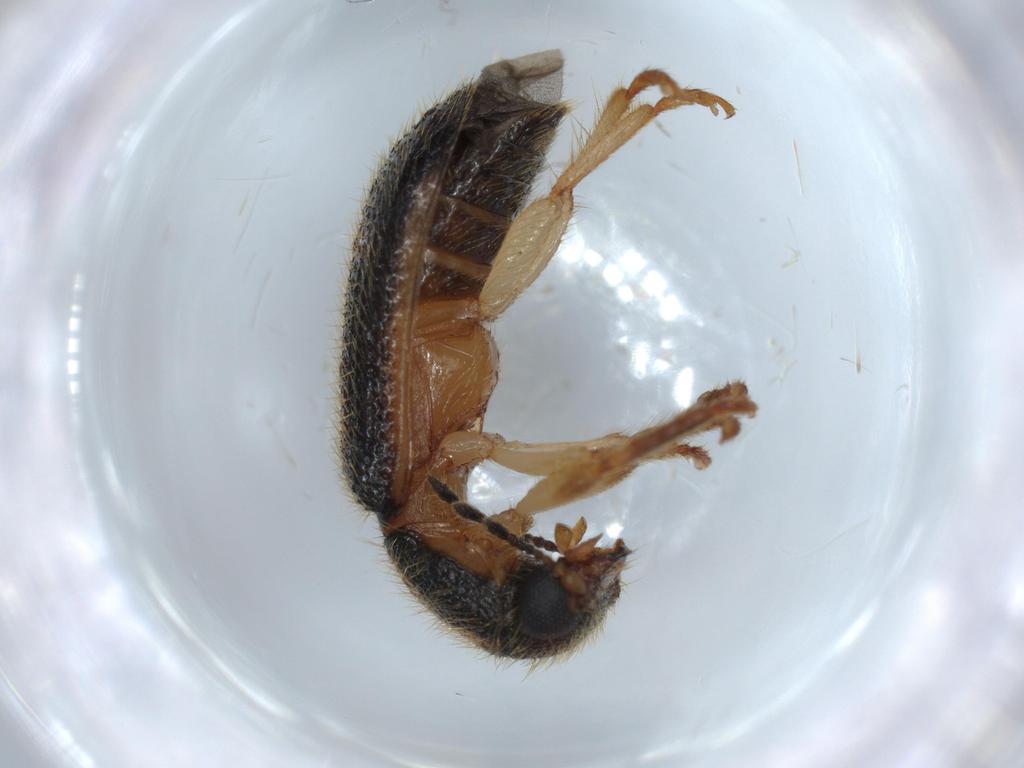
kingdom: Animalia
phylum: Arthropoda
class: Insecta
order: Coleoptera
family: Brentidae
